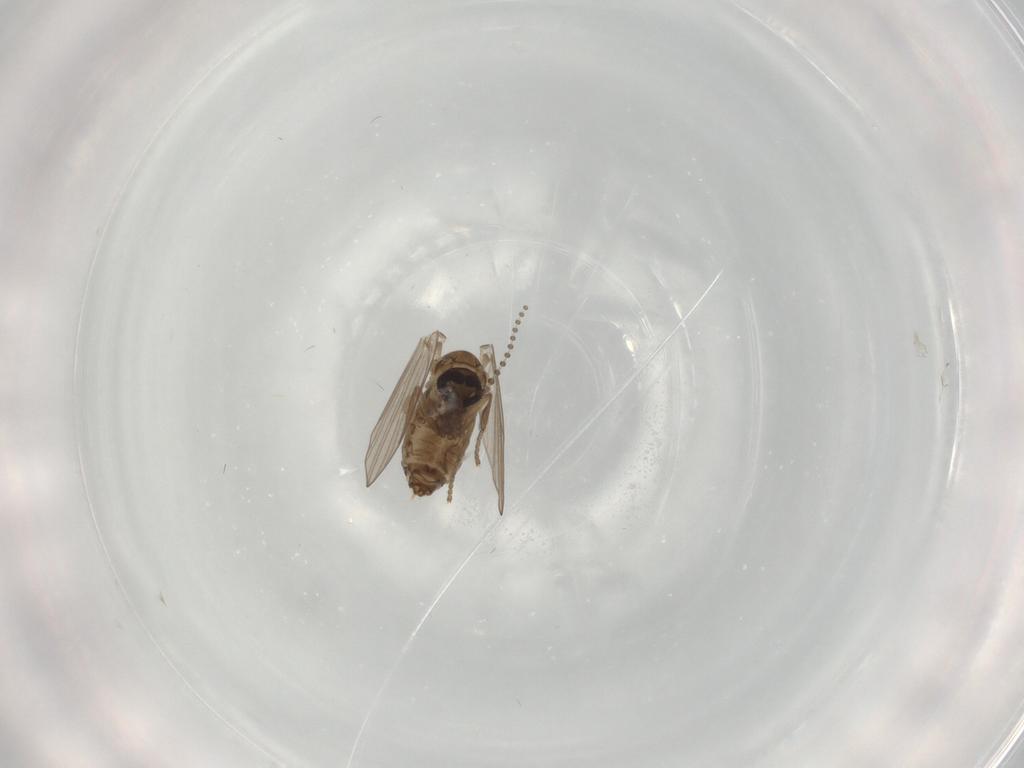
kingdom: Animalia
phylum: Arthropoda
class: Insecta
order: Diptera
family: Psychodidae
